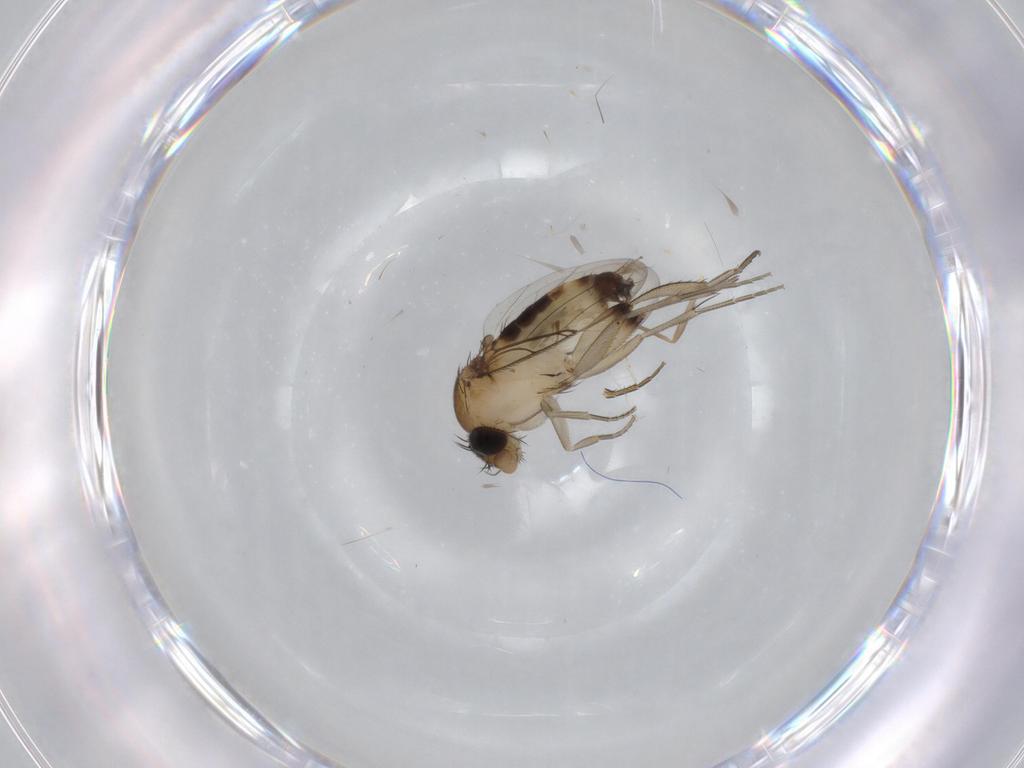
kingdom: Animalia
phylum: Arthropoda
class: Insecta
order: Diptera
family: Phoridae
